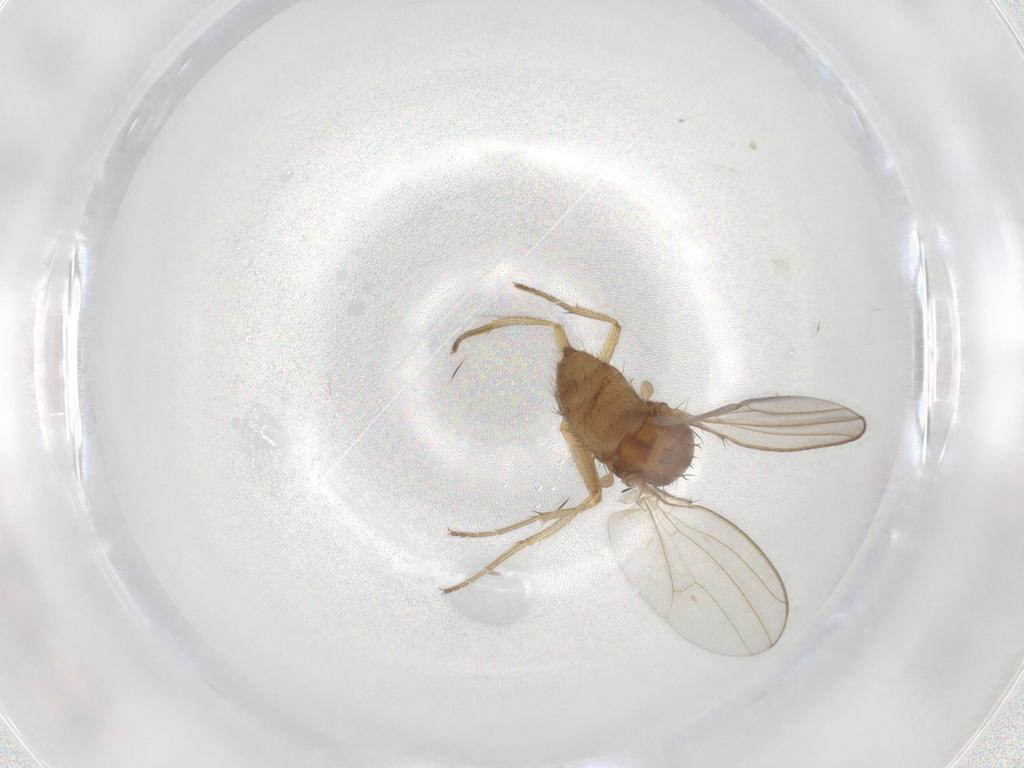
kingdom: Animalia
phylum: Arthropoda
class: Insecta
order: Diptera
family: Drosophilidae
